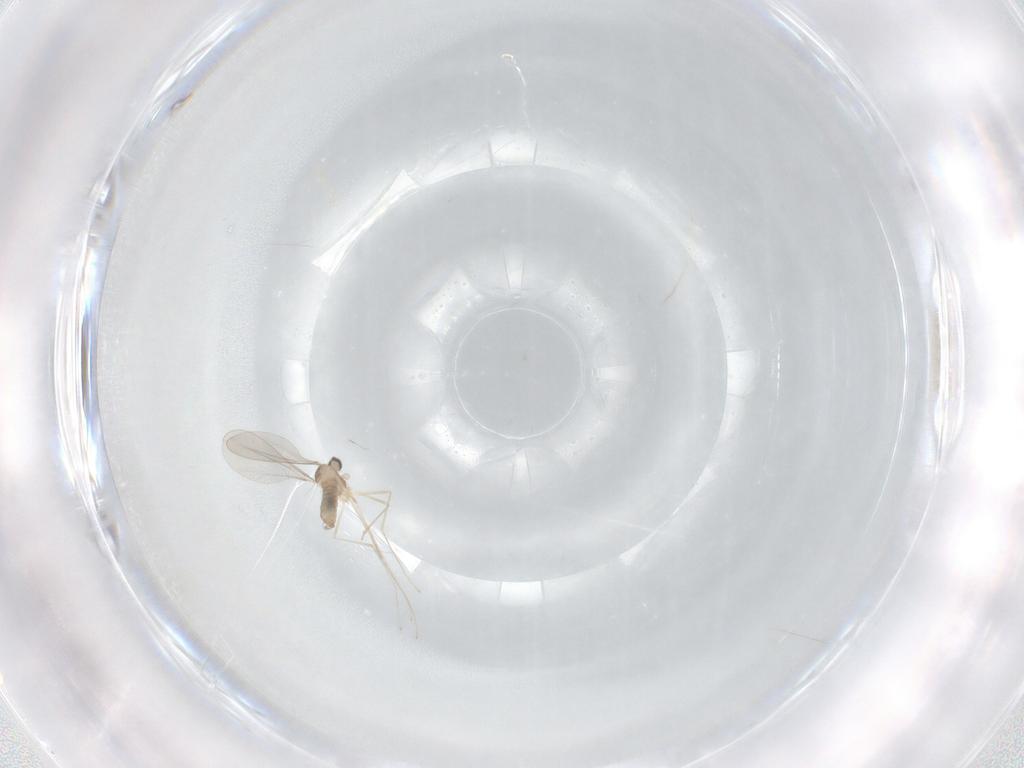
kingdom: Animalia
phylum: Arthropoda
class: Insecta
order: Diptera
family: Cecidomyiidae
